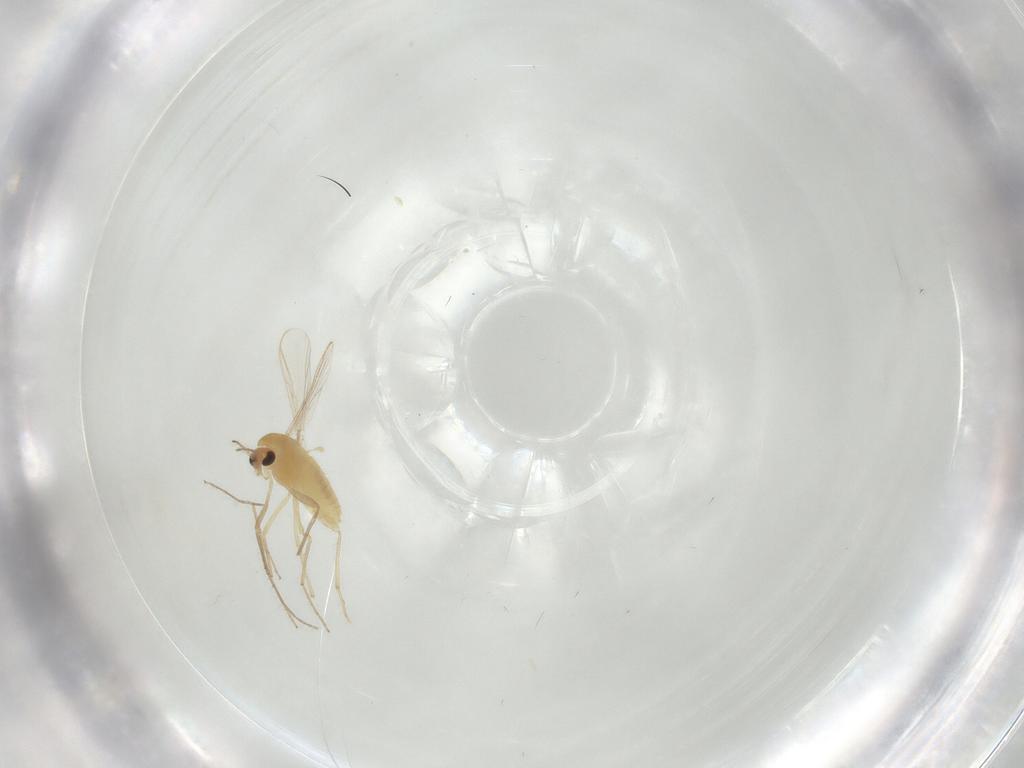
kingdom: Animalia
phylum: Arthropoda
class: Insecta
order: Diptera
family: Chironomidae
